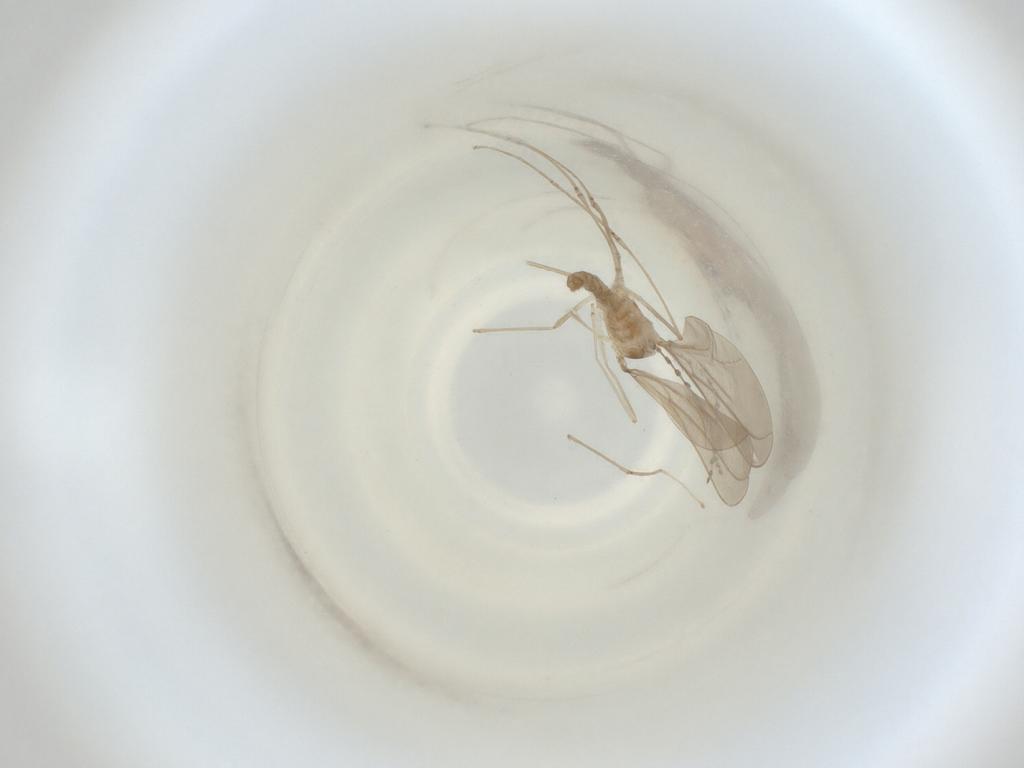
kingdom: Animalia
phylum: Arthropoda
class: Insecta
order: Diptera
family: Cecidomyiidae
